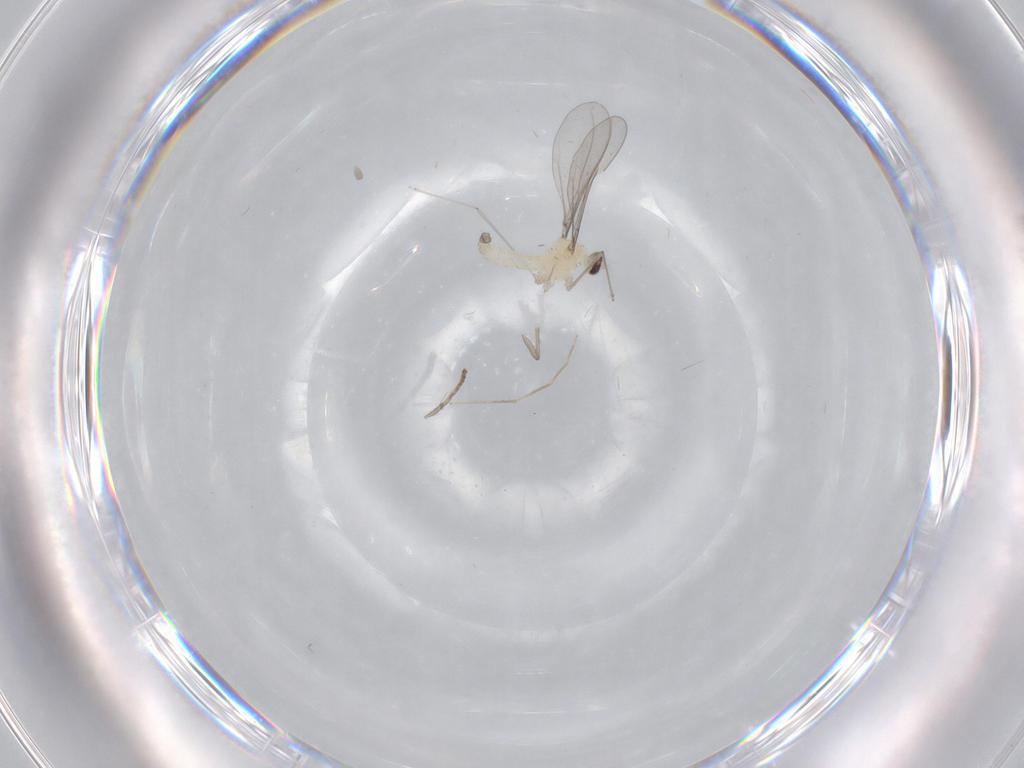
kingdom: Animalia
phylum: Arthropoda
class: Insecta
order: Diptera
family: Psychodidae
